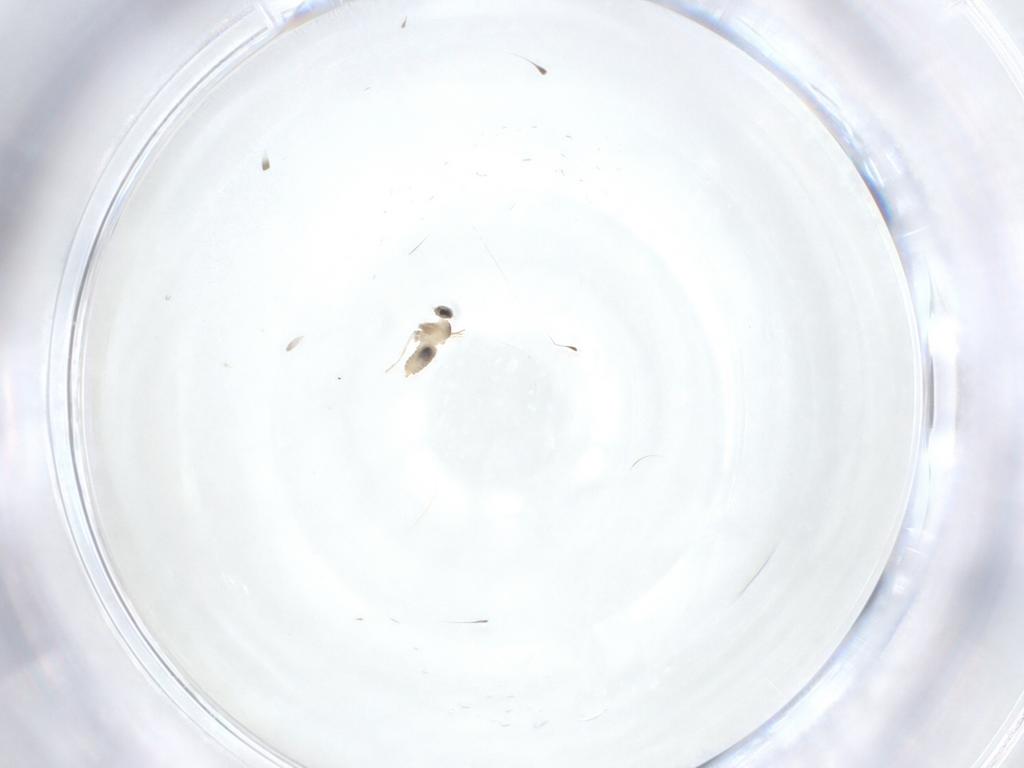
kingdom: Animalia
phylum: Arthropoda
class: Insecta
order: Diptera
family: Cecidomyiidae
